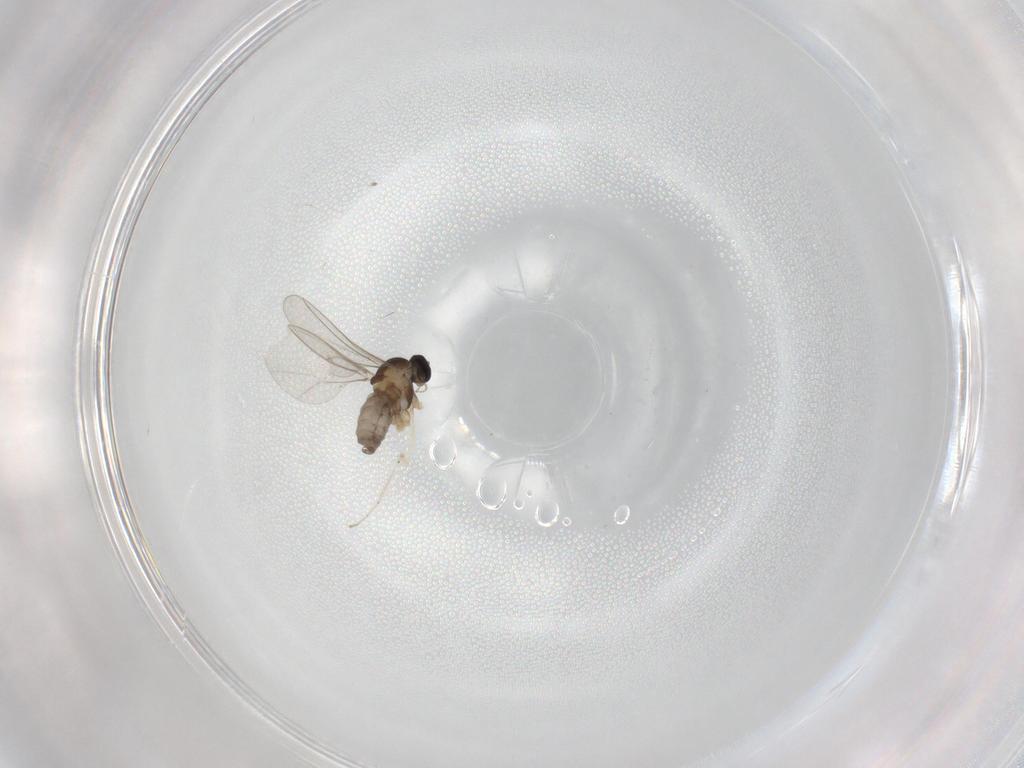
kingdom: Animalia
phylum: Arthropoda
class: Insecta
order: Diptera
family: Cecidomyiidae
